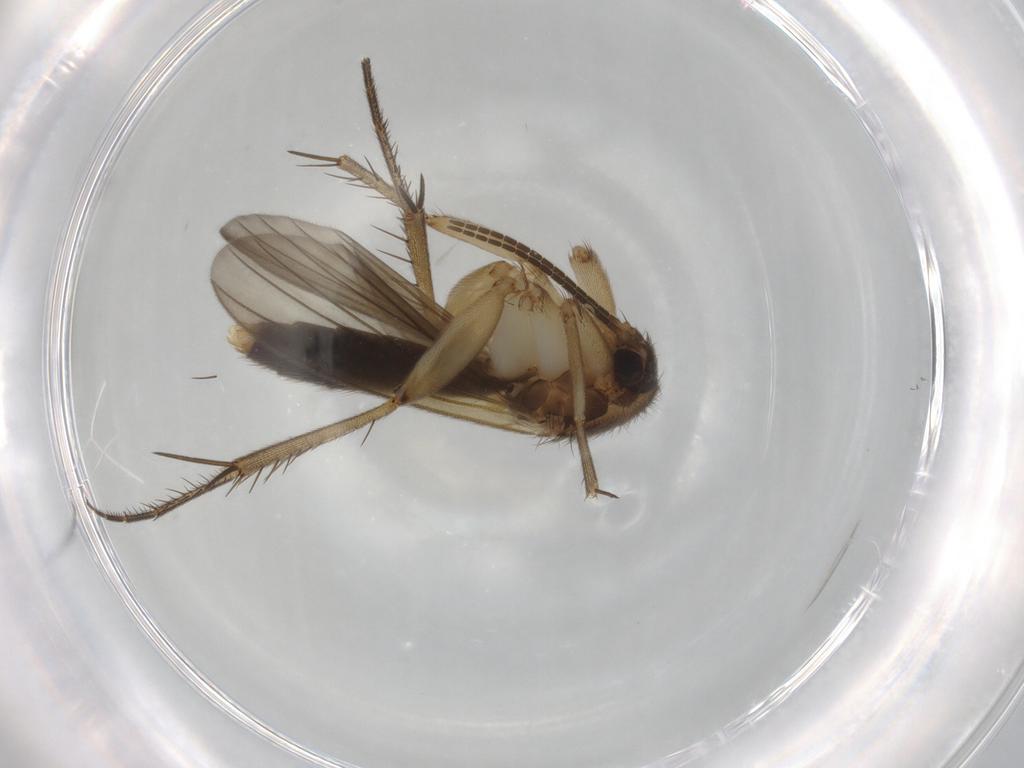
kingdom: Animalia
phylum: Arthropoda
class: Insecta
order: Diptera
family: Mycetophilidae
